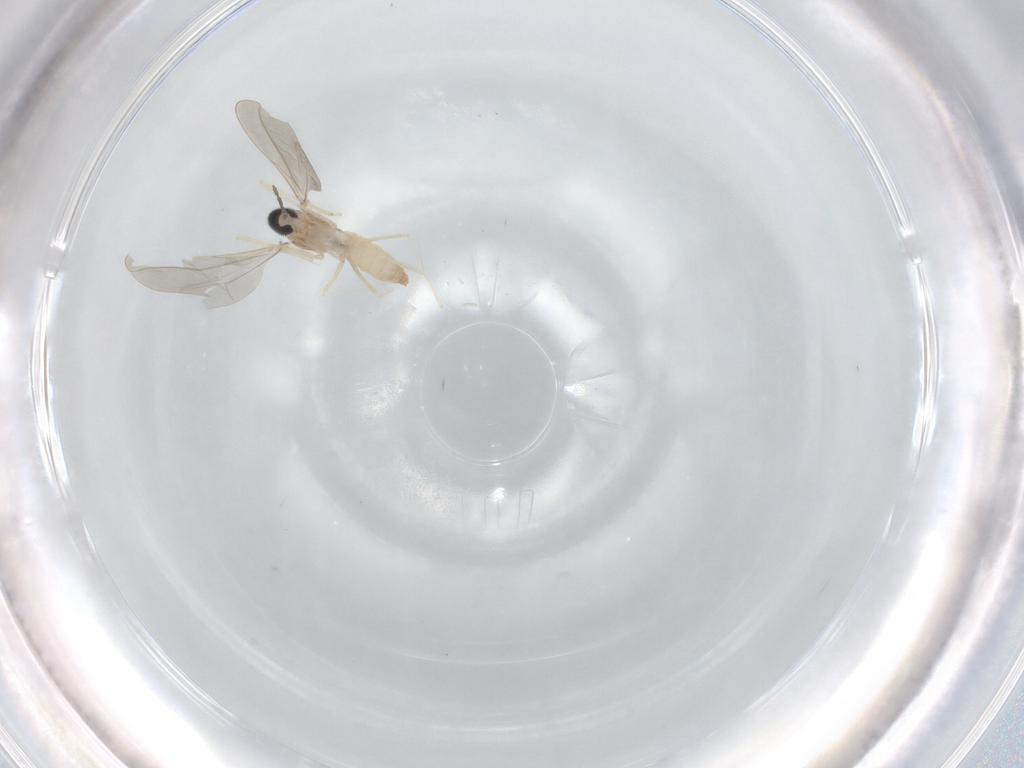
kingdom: Animalia
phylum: Arthropoda
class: Insecta
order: Diptera
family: Cecidomyiidae
